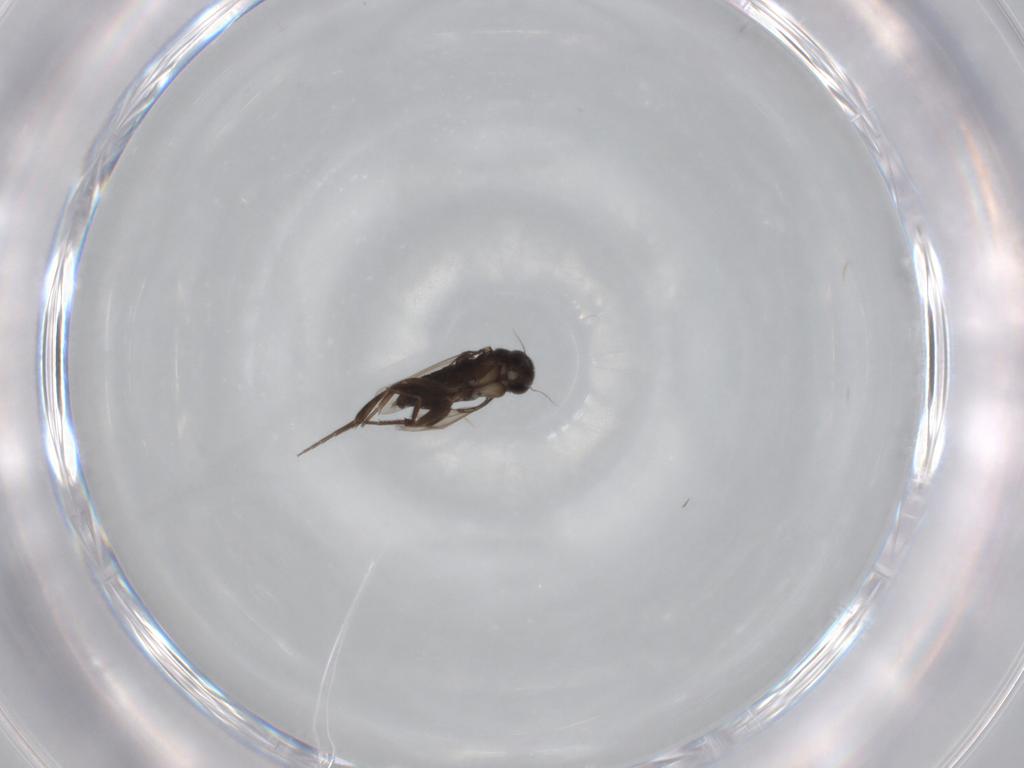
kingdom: Animalia
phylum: Arthropoda
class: Insecta
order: Diptera
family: Phoridae
